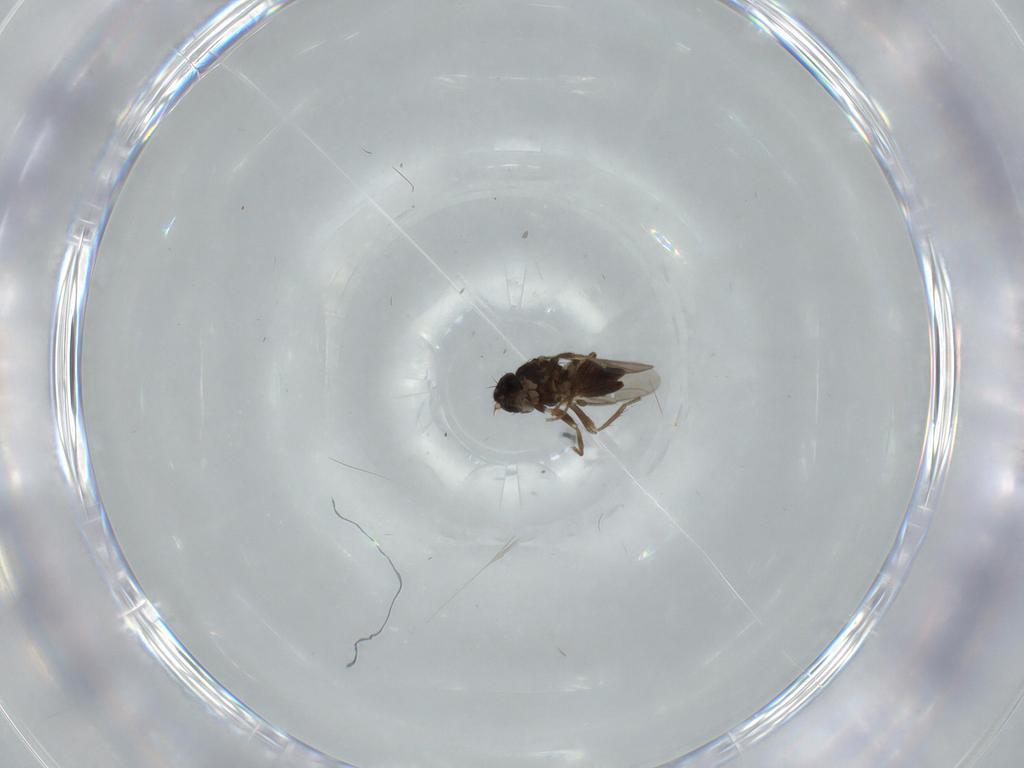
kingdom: Animalia
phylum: Arthropoda
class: Insecta
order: Diptera
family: Sphaeroceridae
